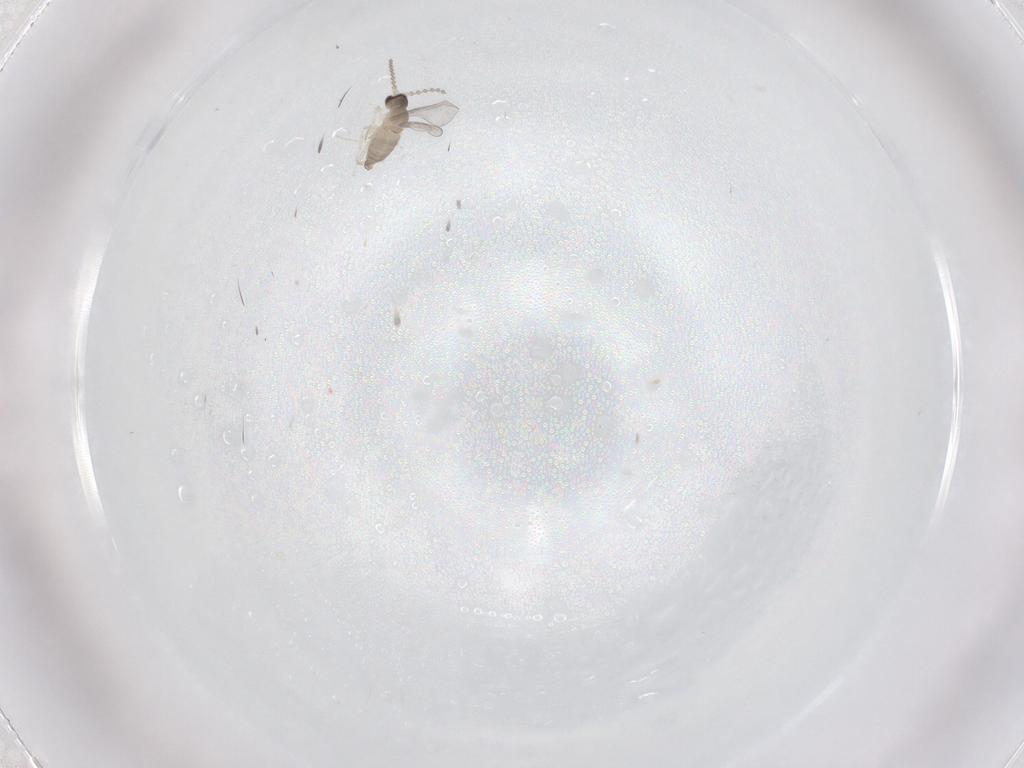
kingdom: Animalia
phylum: Arthropoda
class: Insecta
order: Diptera
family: Cecidomyiidae
